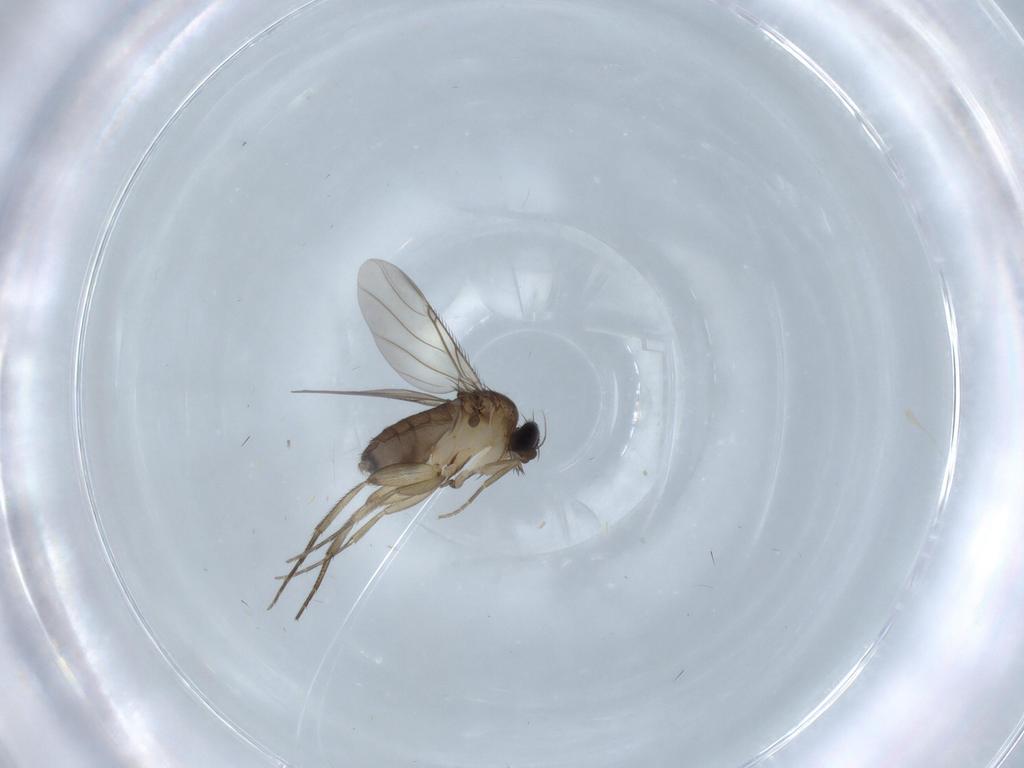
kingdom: Animalia
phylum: Arthropoda
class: Insecta
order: Diptera
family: Phoridae
